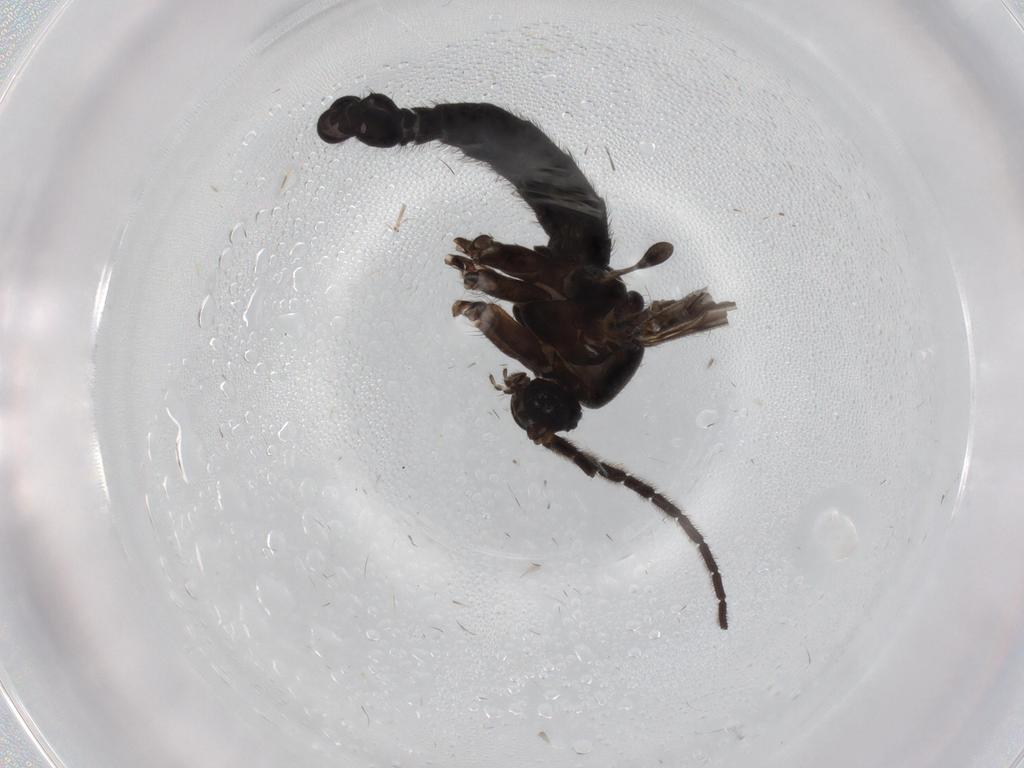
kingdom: Animalia
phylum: Arthropoda
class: Insecta
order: Diptera
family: Sciaridae
